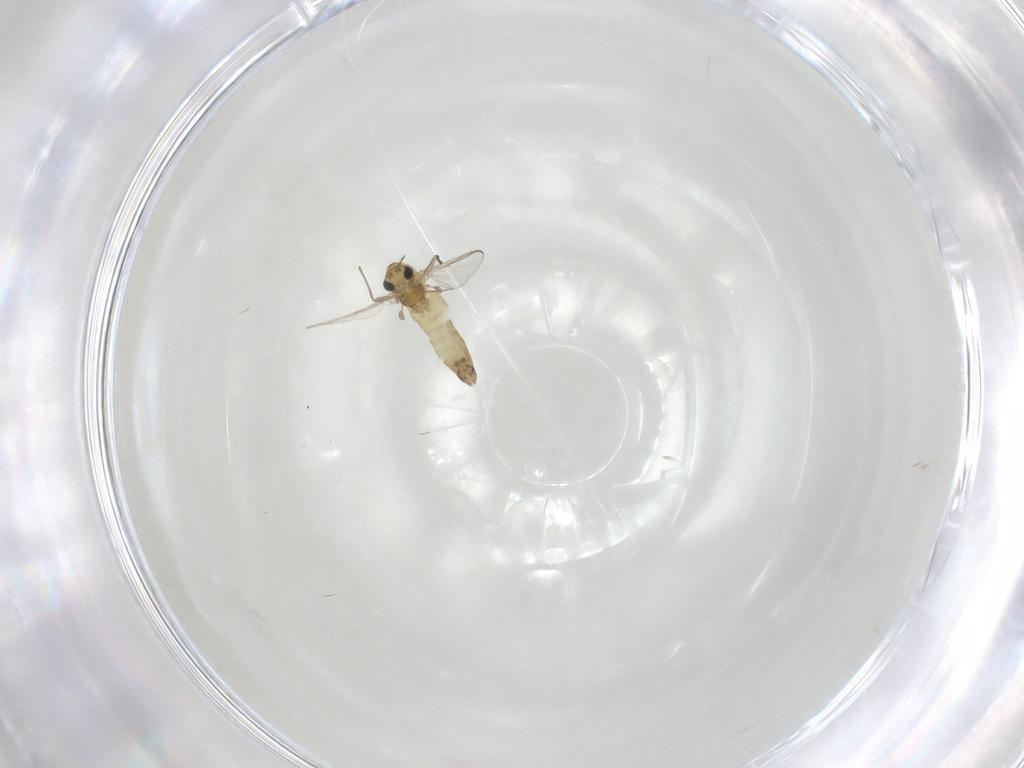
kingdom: Animalia
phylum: Arthropoda
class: Insecta
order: Diptera
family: Chironomidae
